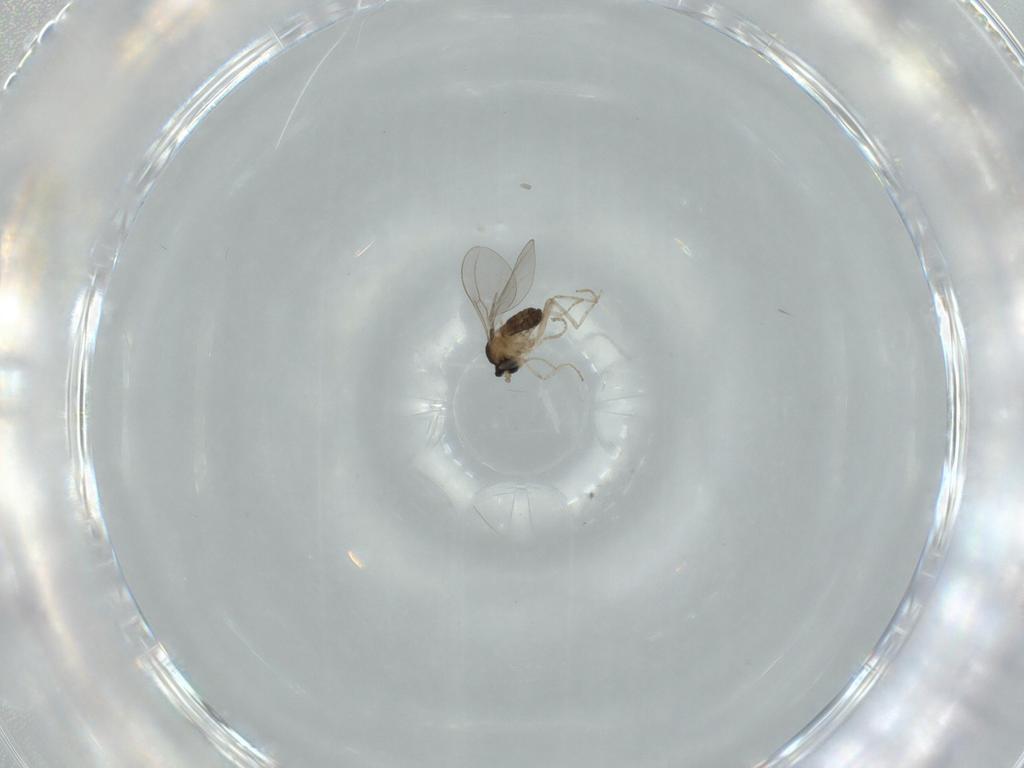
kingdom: Animalia
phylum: Arthropoda
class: Insecta
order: Diptera
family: Cecidomyiidae
